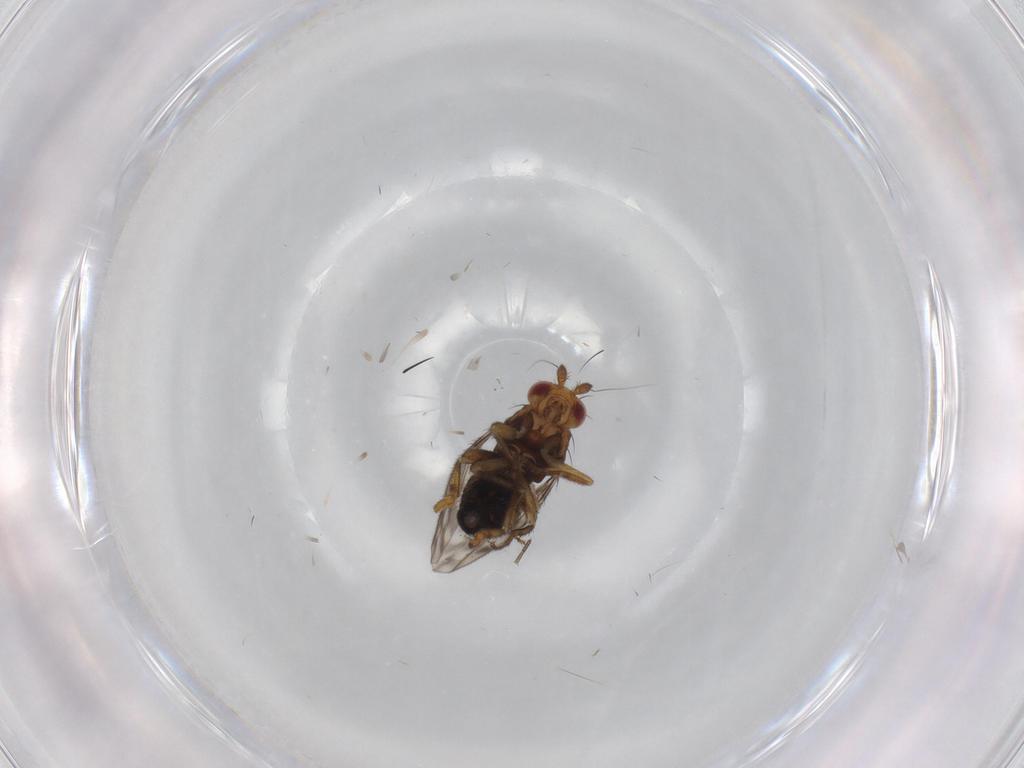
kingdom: Animalia
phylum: Arthropoda
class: Insecta
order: Diptera
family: Sphaeroceridae
